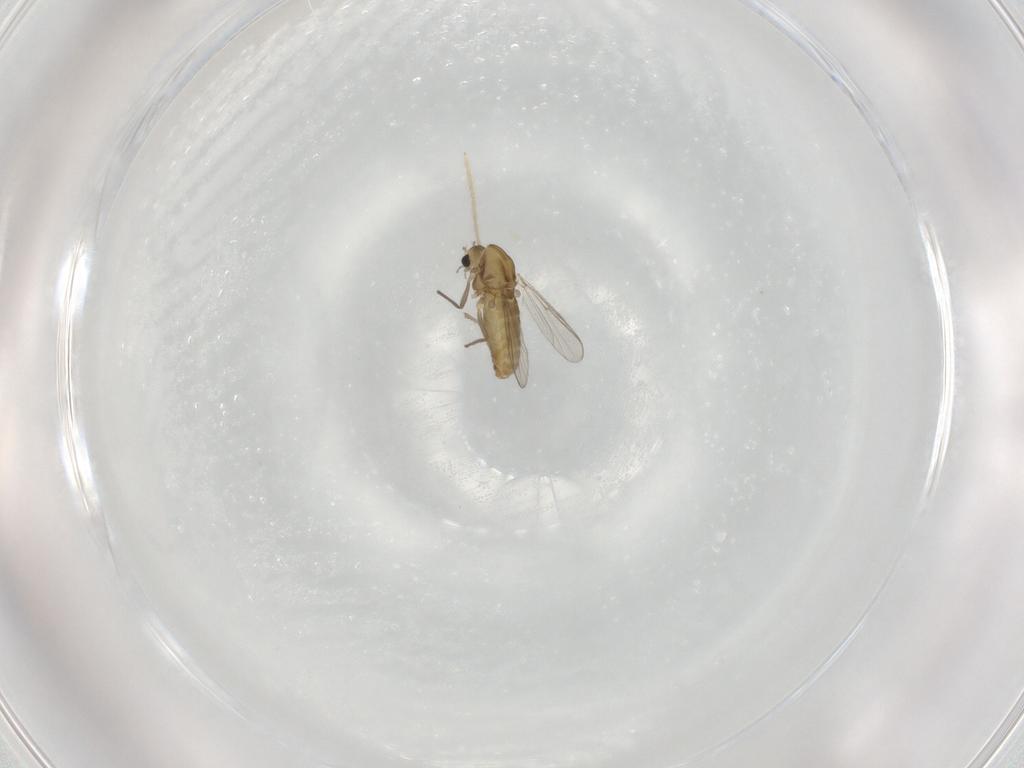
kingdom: Animalia
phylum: Arthropoda
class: Insecta
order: Diptera
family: Chironomidae
